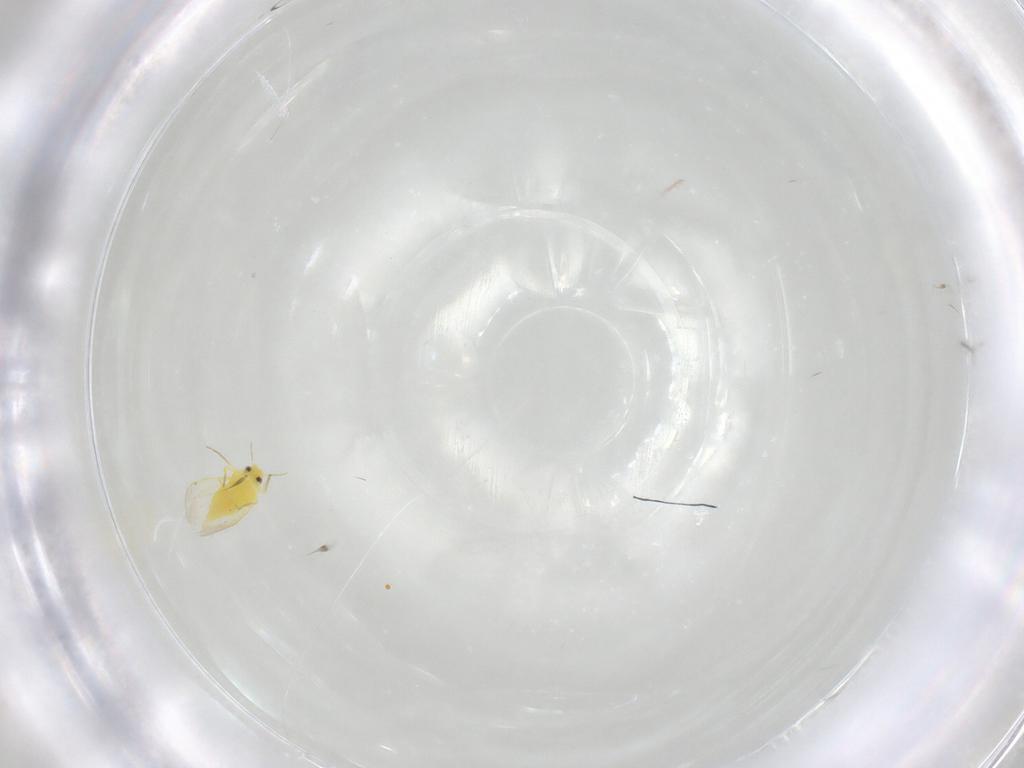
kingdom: Animalia
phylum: Arthropoda
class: Insecta
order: Hemiptera
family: Aleyrodidae
